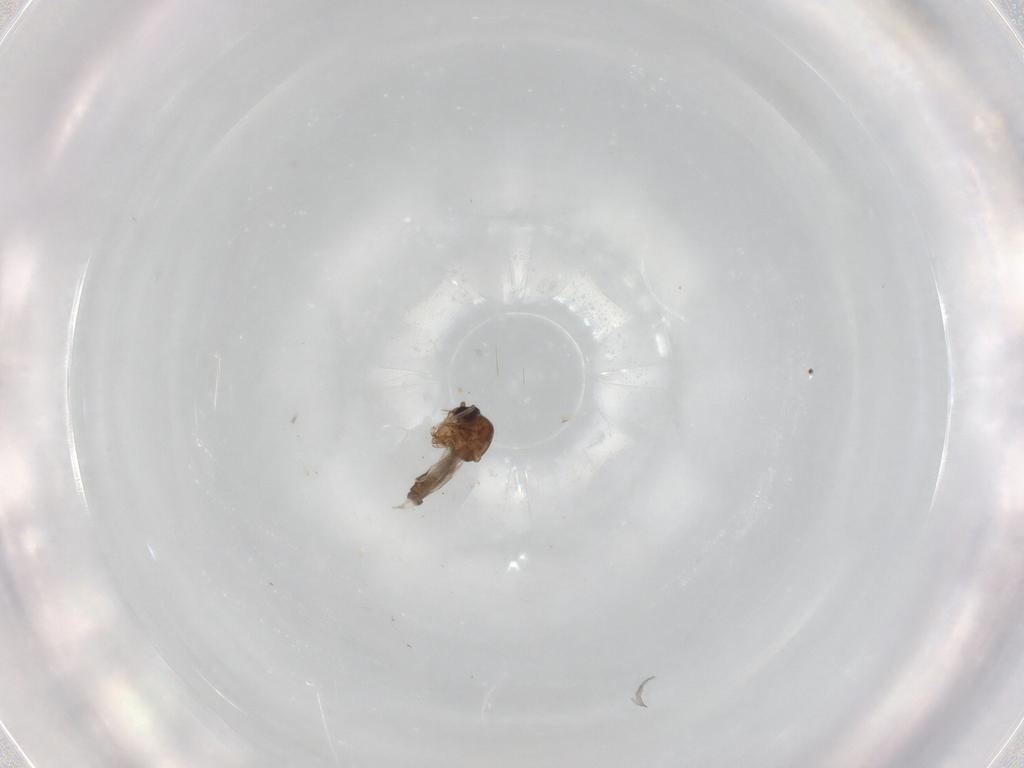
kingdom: Animalia
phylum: Arthropoda
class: Insecta
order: Diptera
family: Ceratopogonidae
